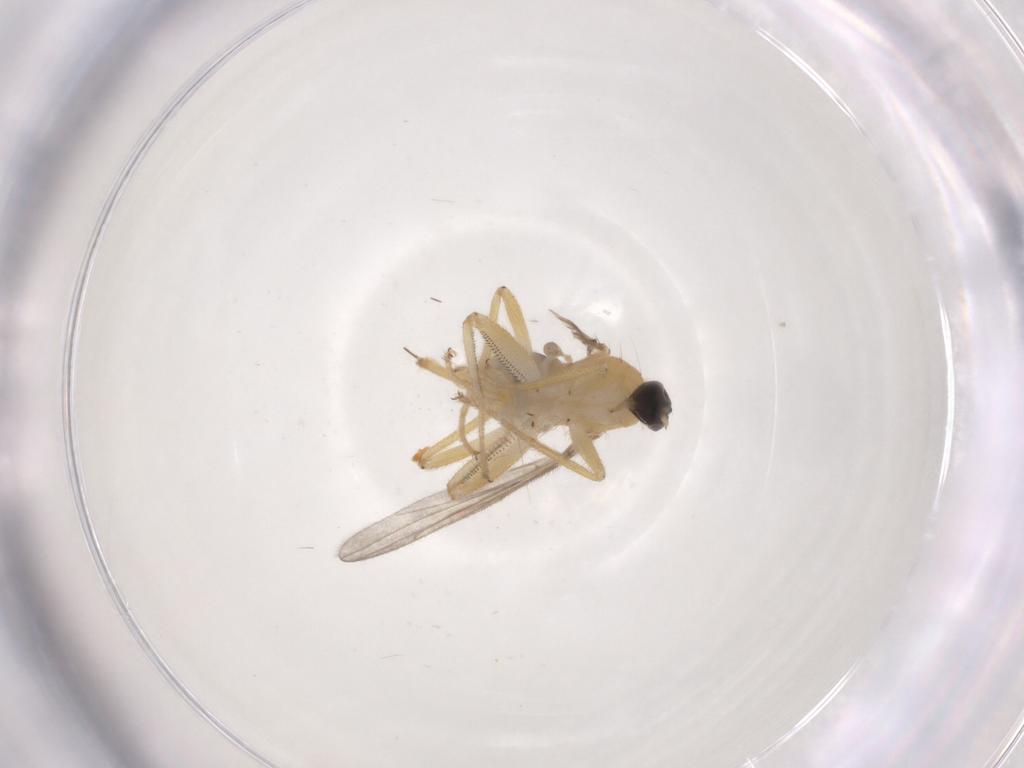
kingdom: Animalia
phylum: Arthropoda
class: Insecta
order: Diptera
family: Hybotidae
